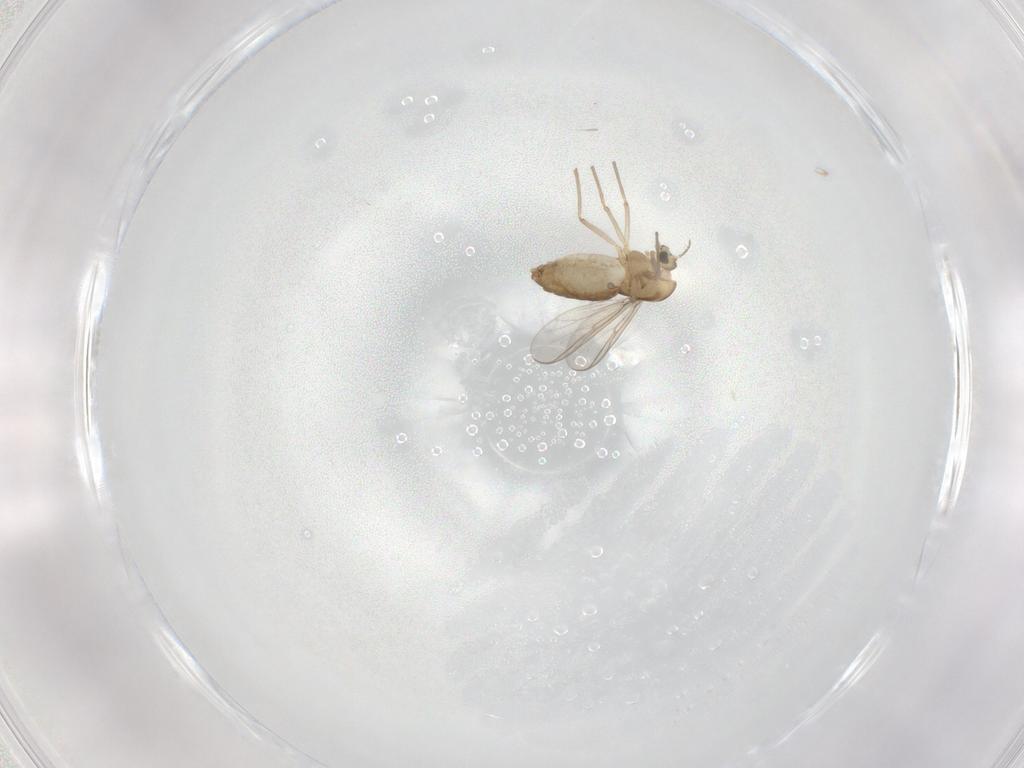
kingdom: Animalia
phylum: Arthropoda
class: Insecta
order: Diptera
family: Chironomidae
